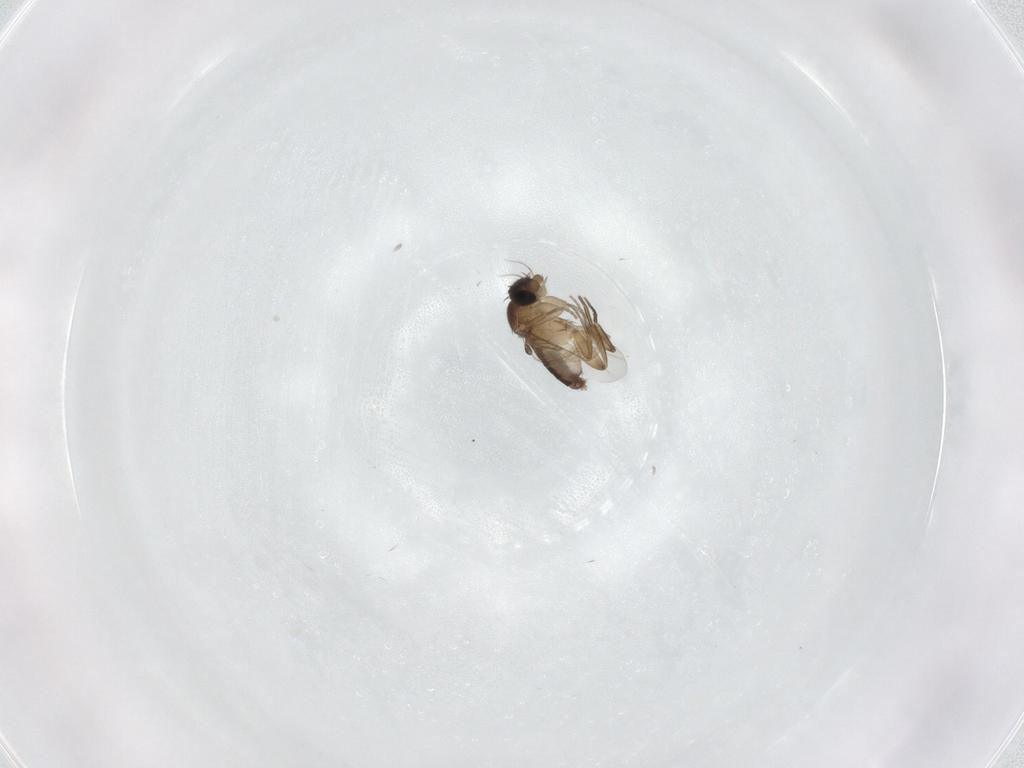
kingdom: Animalia
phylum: Arthropoda
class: Insecta
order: Diptera
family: Phoridae
